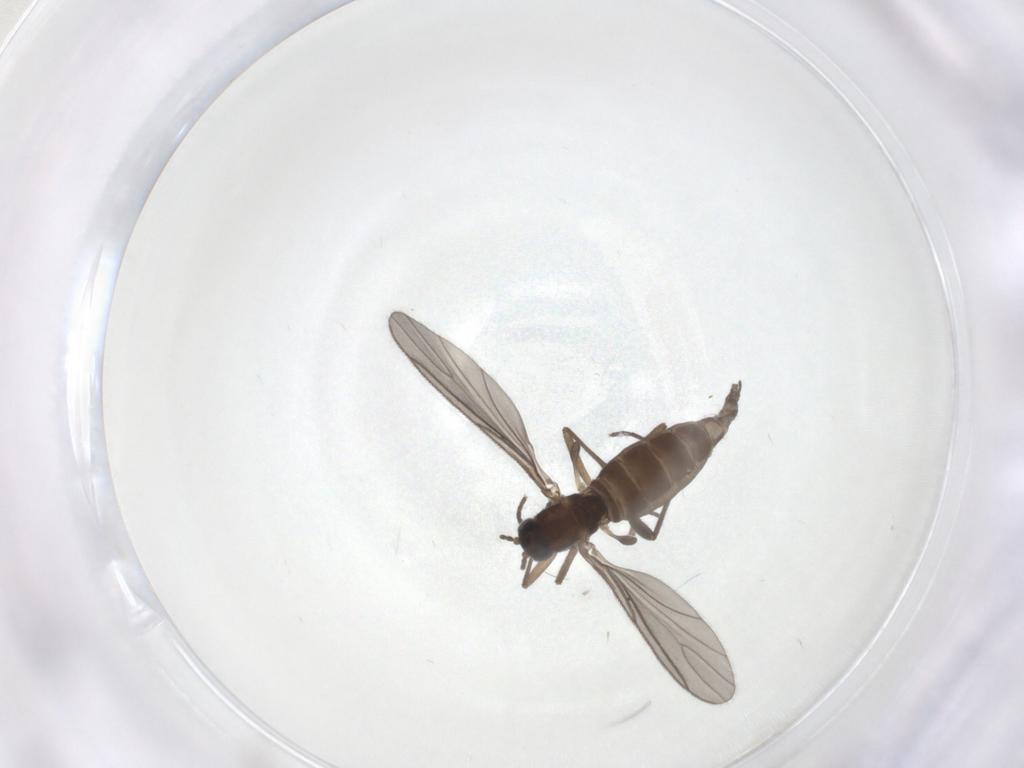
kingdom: Animalia
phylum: Arthropoda
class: Insecta
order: Diptera
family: Sciaridae
